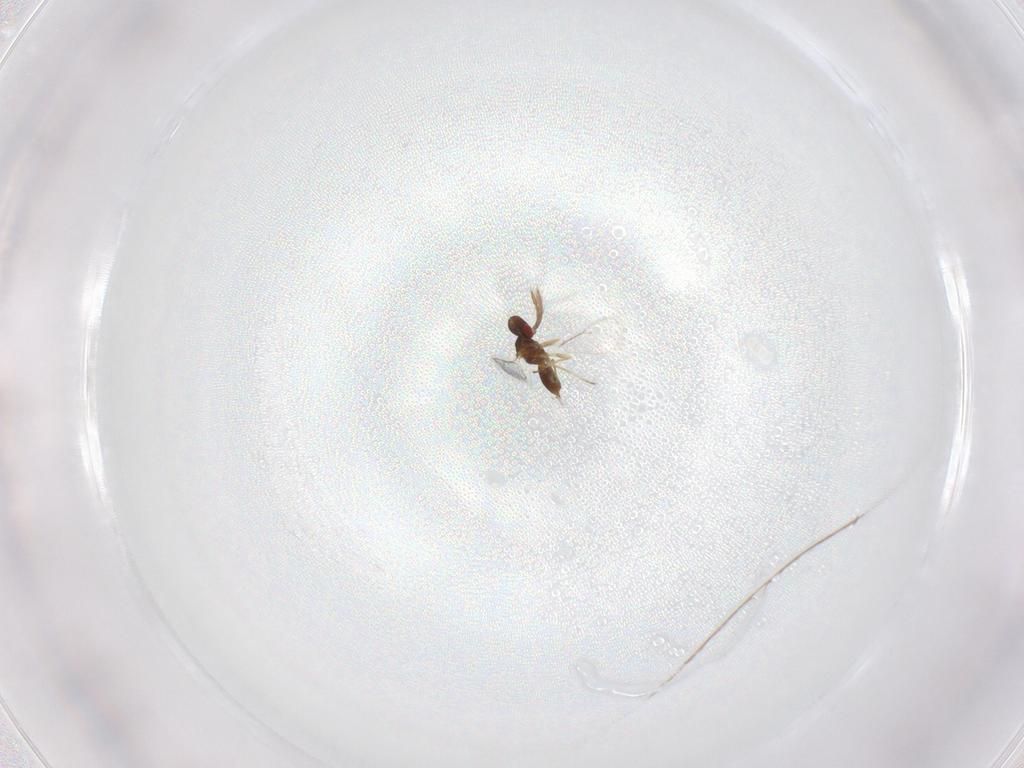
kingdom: Animalia
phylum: Arthropoda
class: Insecta
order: Hymenoptera
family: Eulophidae
